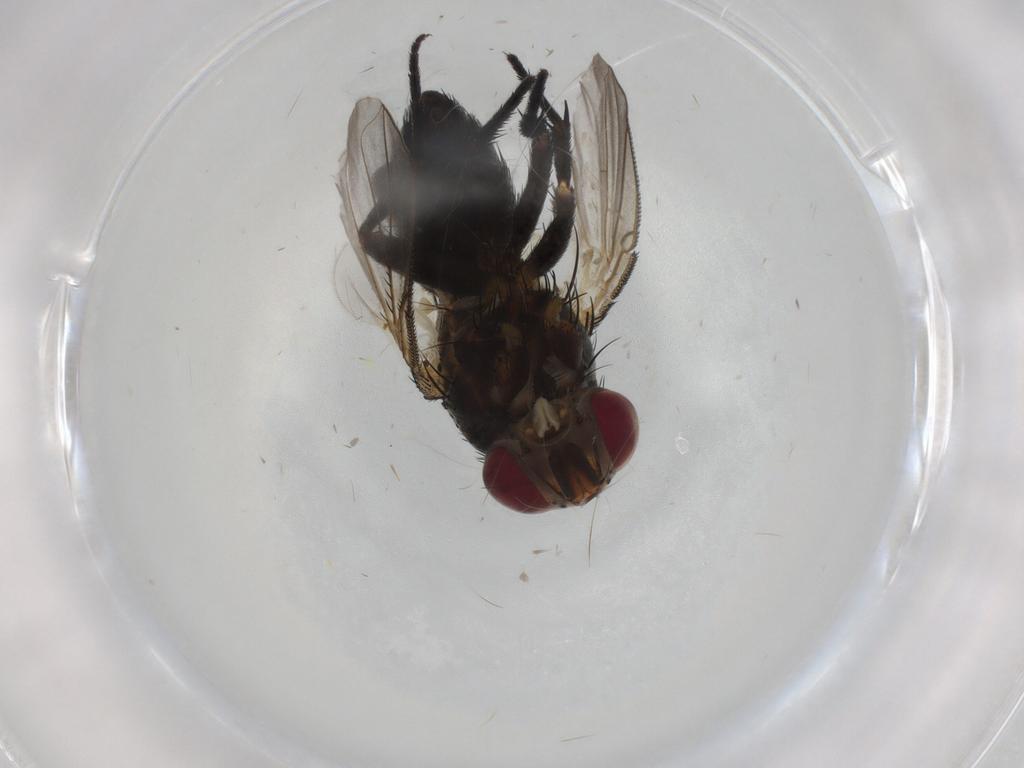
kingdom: Animalia
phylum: Arthropoda
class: Insecta
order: Diptera
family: Tachinidae
